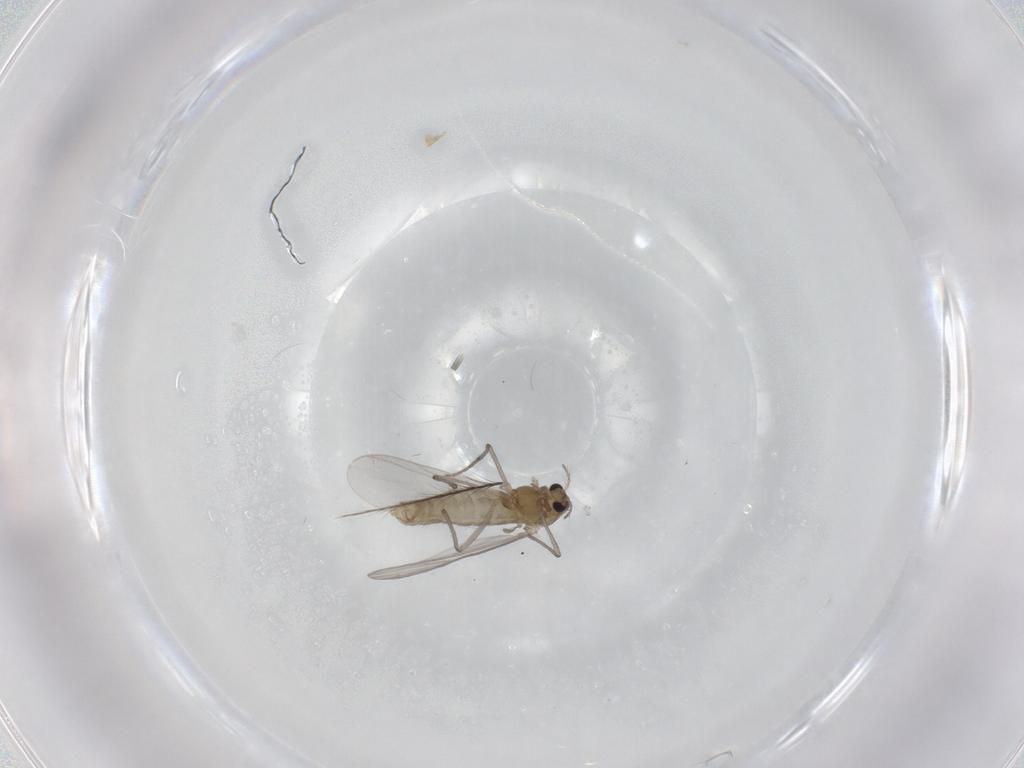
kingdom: Animalia
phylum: Arthropoda
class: Insecta
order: Diptera
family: Chironomidae
